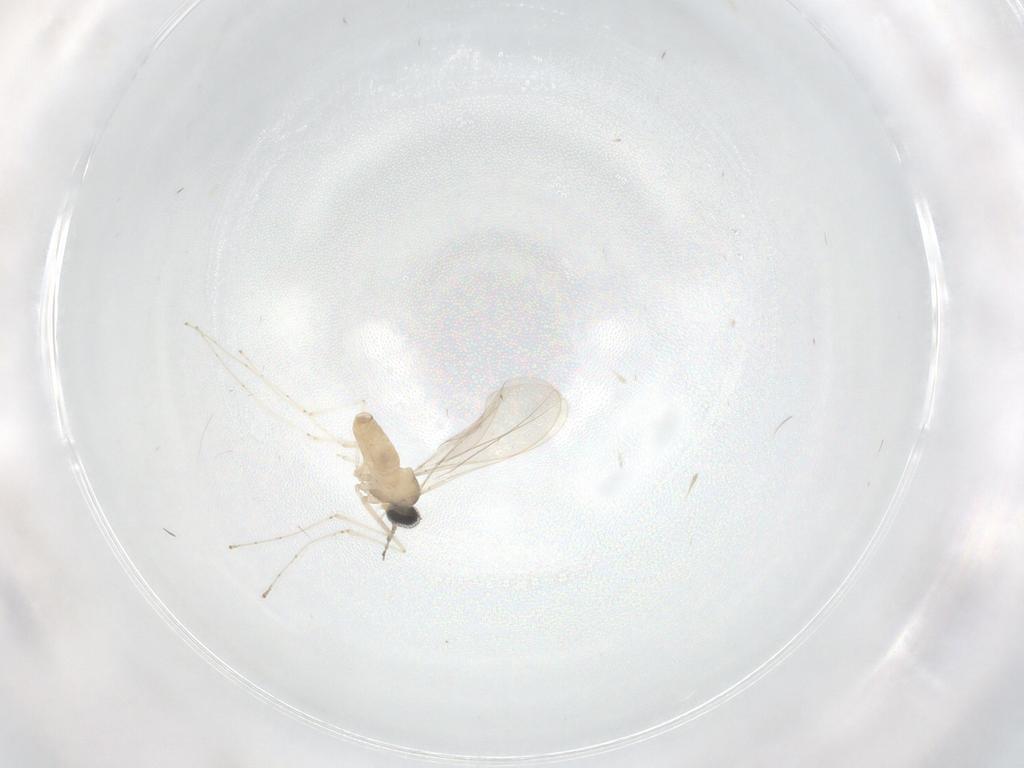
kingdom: Animalia
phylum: Arthropoda
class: Insecta
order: Diptera
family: Cecidomyiidae
